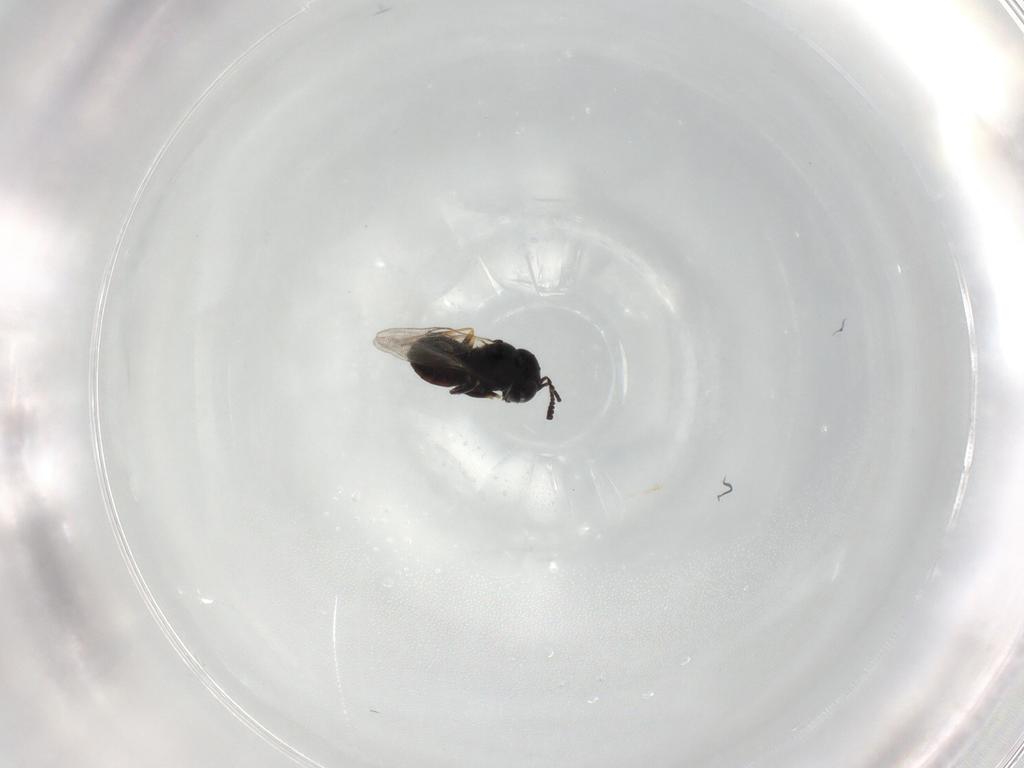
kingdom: Animalia
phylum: Arthropoda
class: Insecta
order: Hymenoptera
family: Scelionidae
